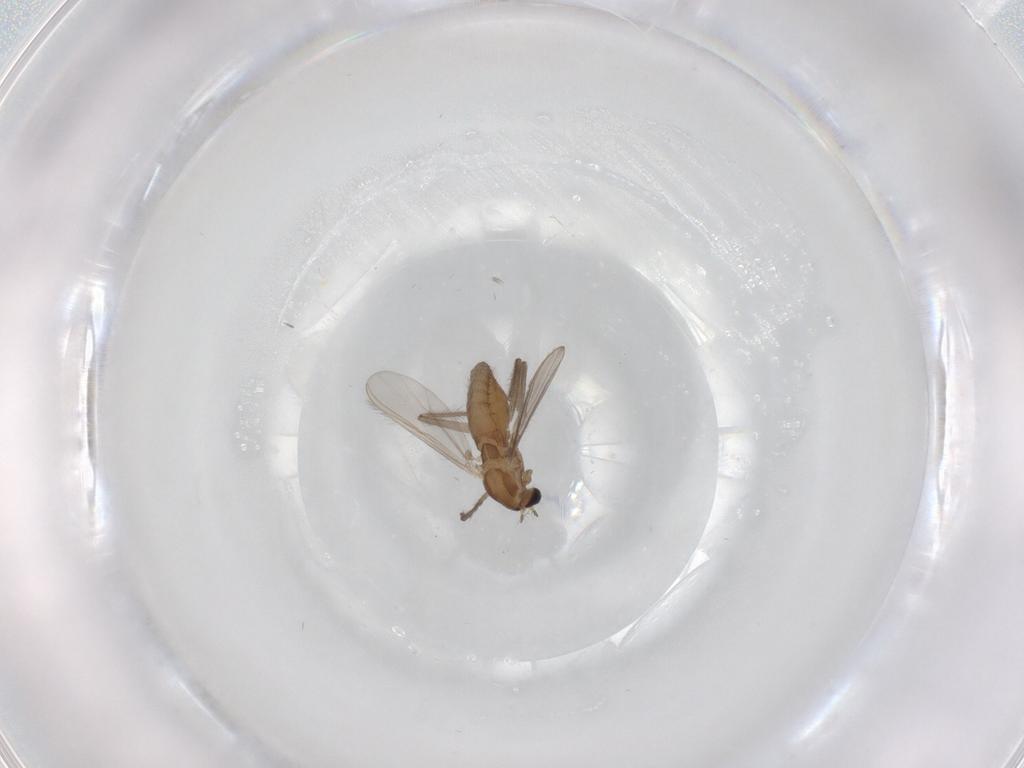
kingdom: Animalia
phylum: Arthropoda
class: Insecta
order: Diptera
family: Chironomidae
